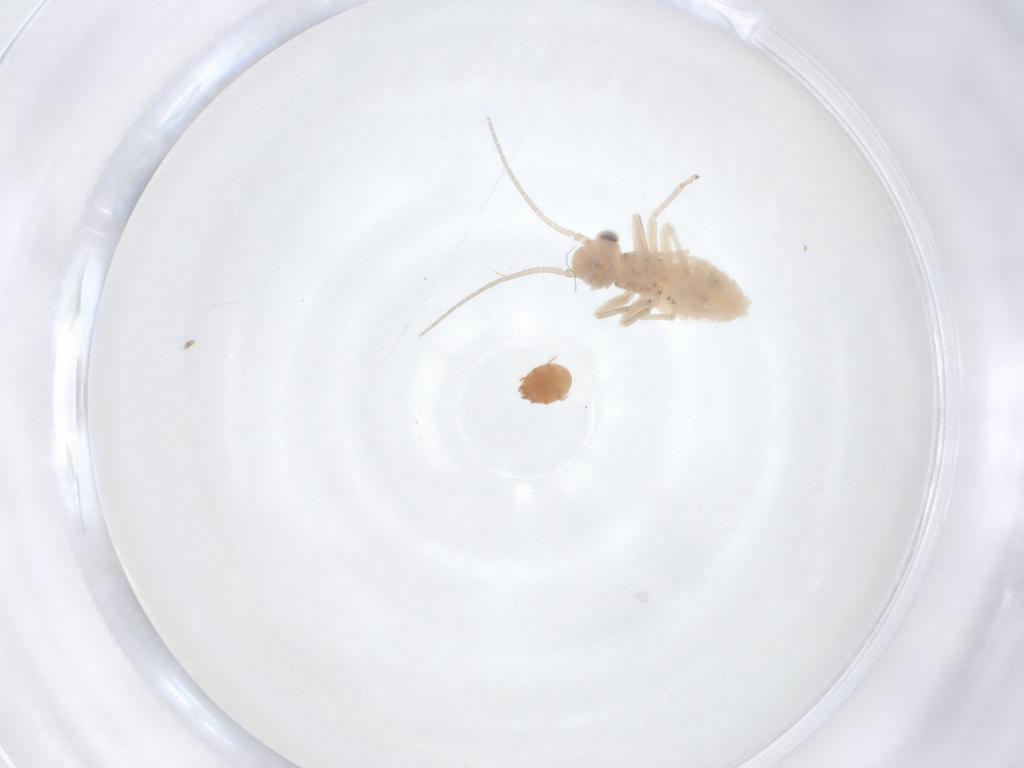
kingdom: Animalia
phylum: Arthropoda
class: Insecta
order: Psocodea
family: Caeciliusidae
